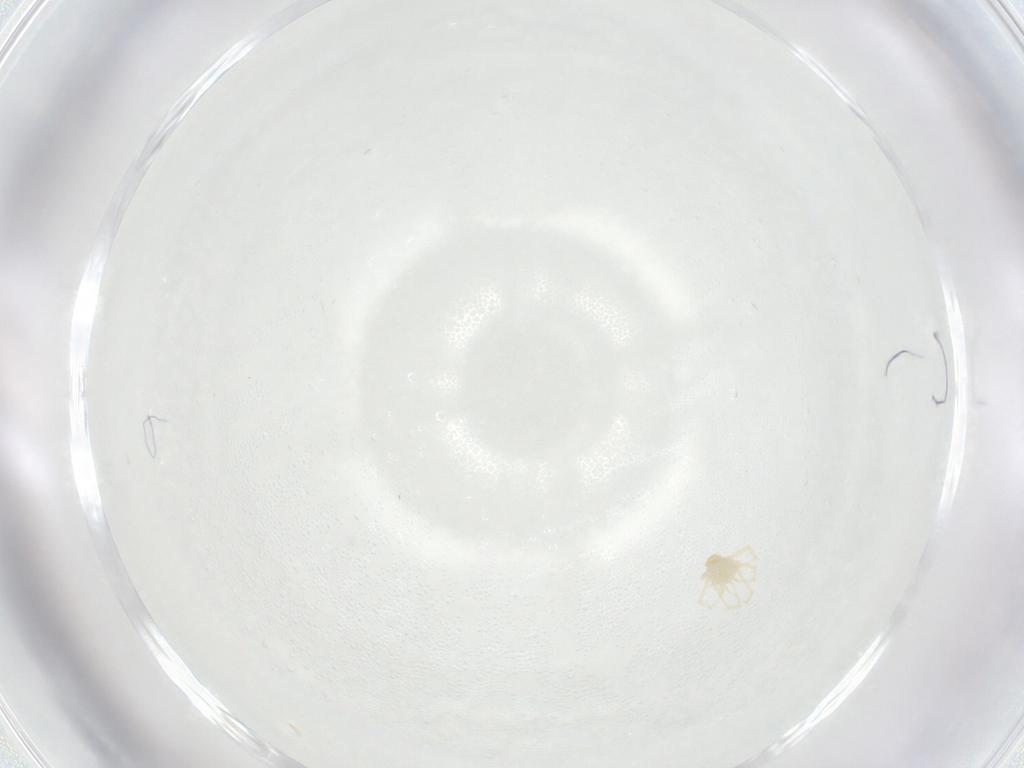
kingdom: Animalia
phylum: Arthropoda
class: Arachnida
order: Trombidiformes
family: Erythraeidae
